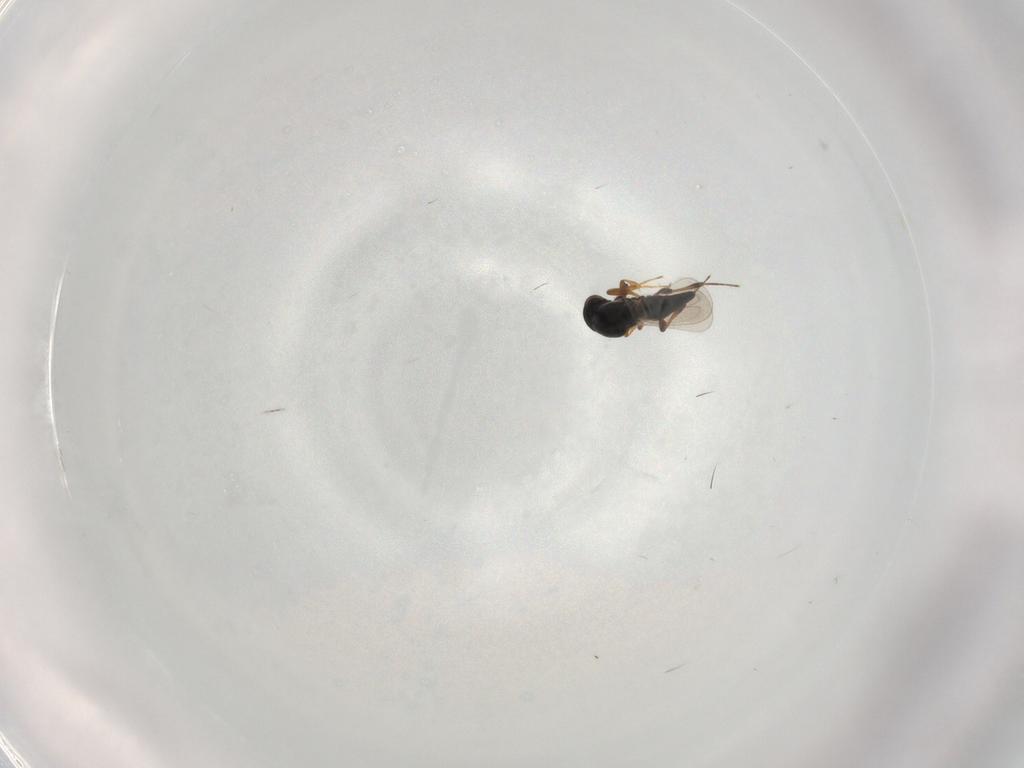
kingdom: Animalia
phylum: Arthropoda
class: Insecta
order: Hymenoptera
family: Platygastridae
